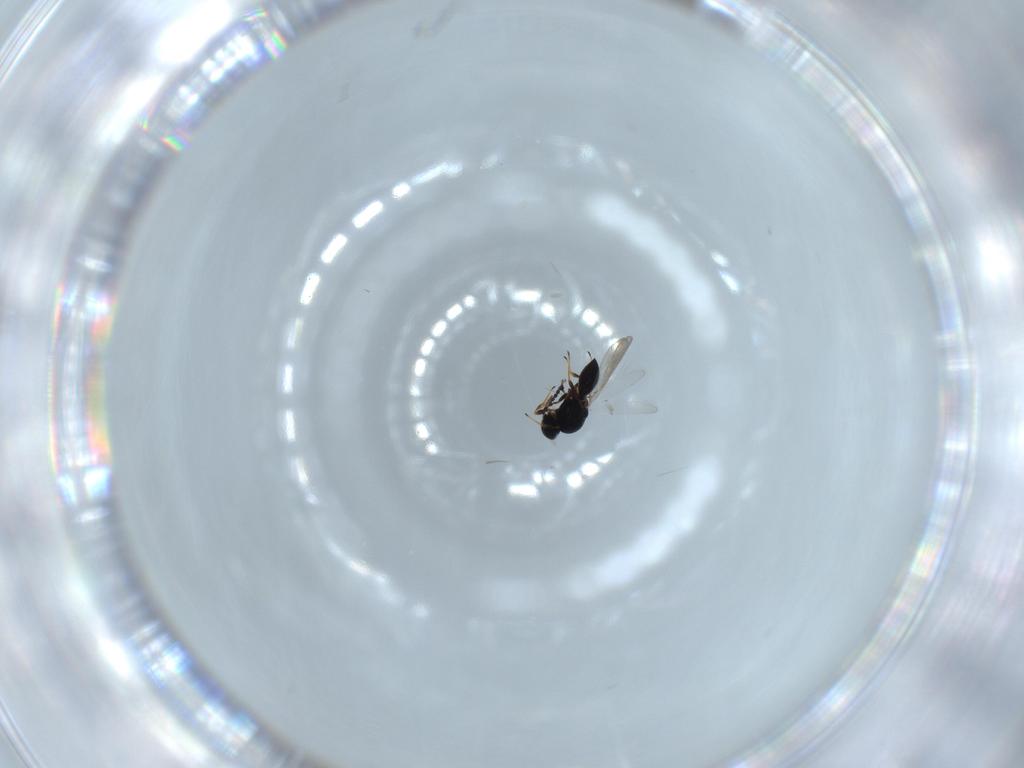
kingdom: Animalia
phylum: Arthropoda
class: Insecta
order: Hymenoptera
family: Platygastridae
